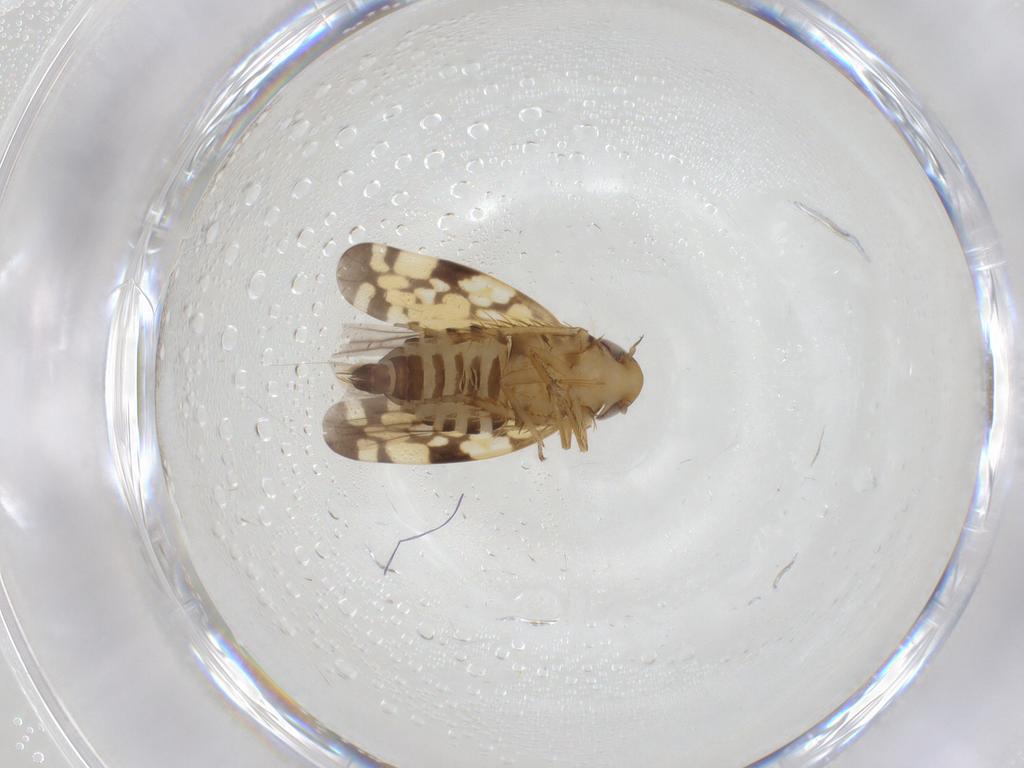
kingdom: Animalia
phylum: Arthropoda
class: Insecta
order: Hemiptera
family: Cicadellidae
